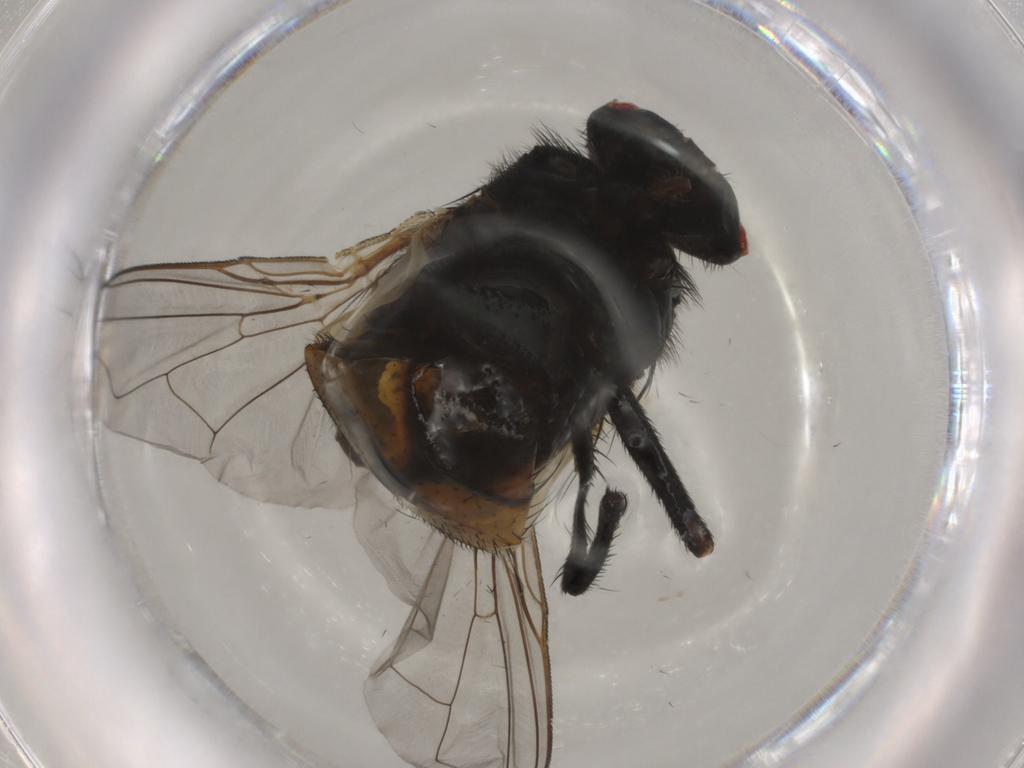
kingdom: Animalia
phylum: Arthropoda
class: Insecta
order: Diptera
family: Muscidae
